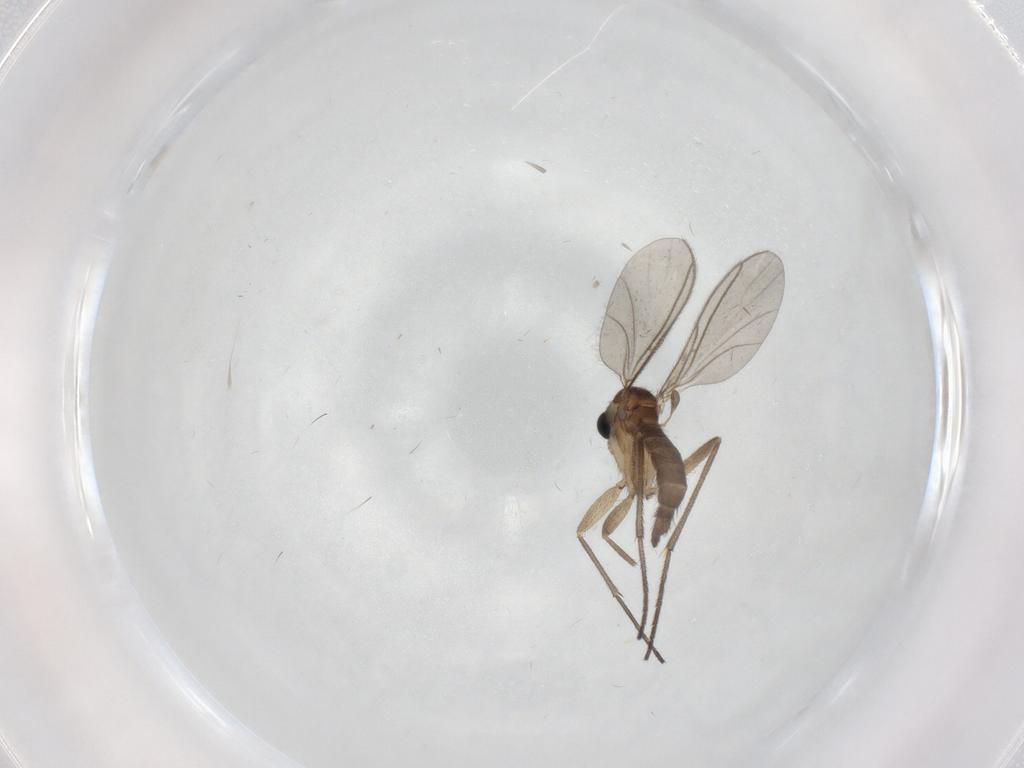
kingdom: Animalia
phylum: Arthropoda
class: Insecta
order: Diptera
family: Sciaridae
